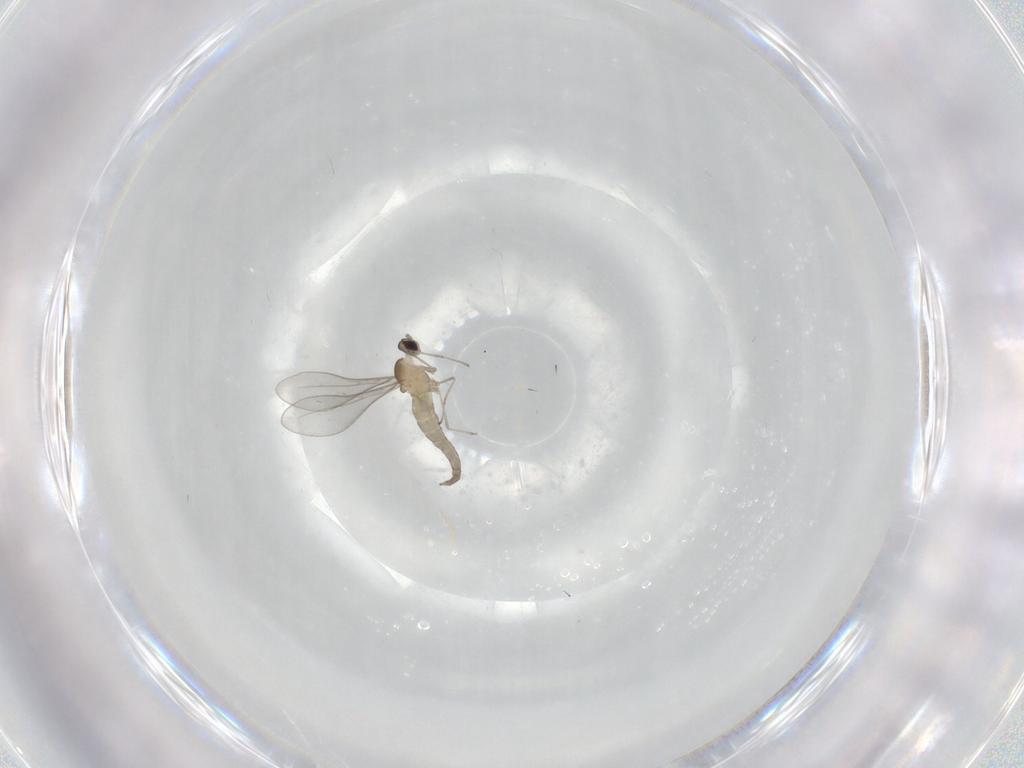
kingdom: Animalia
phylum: Arthropoda
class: Insecta
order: Diptera
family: Cecidomyiidae
